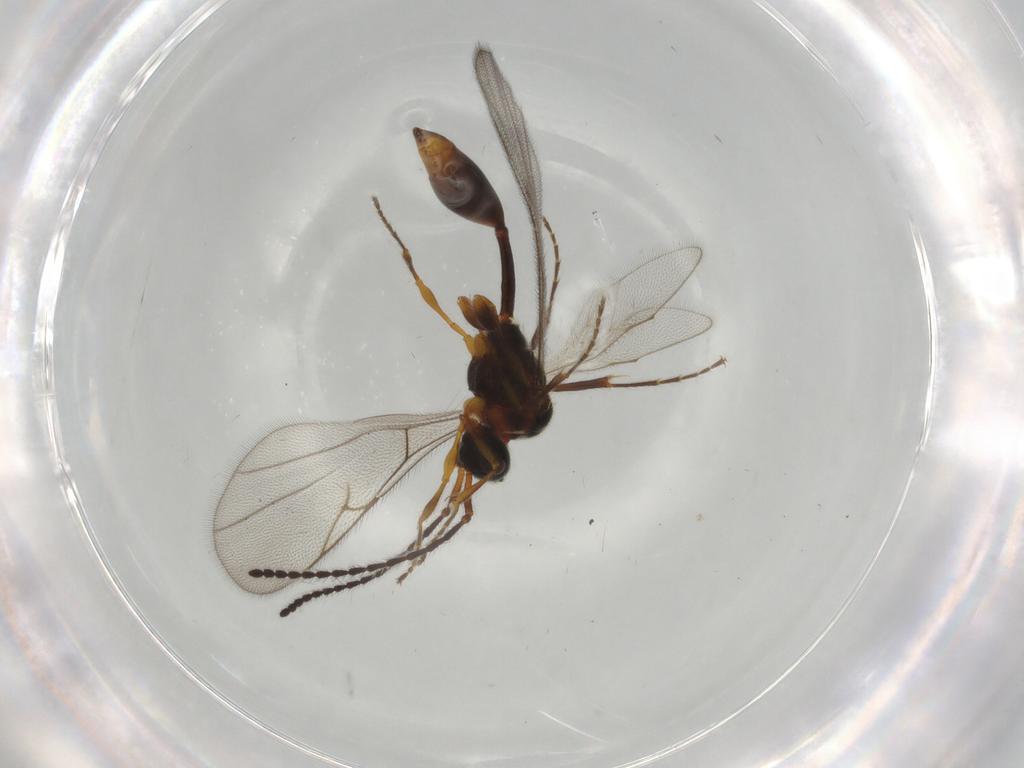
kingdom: Animalia
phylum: Arthropoda
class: Insecta
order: Hymenoptera
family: Diapriidae
